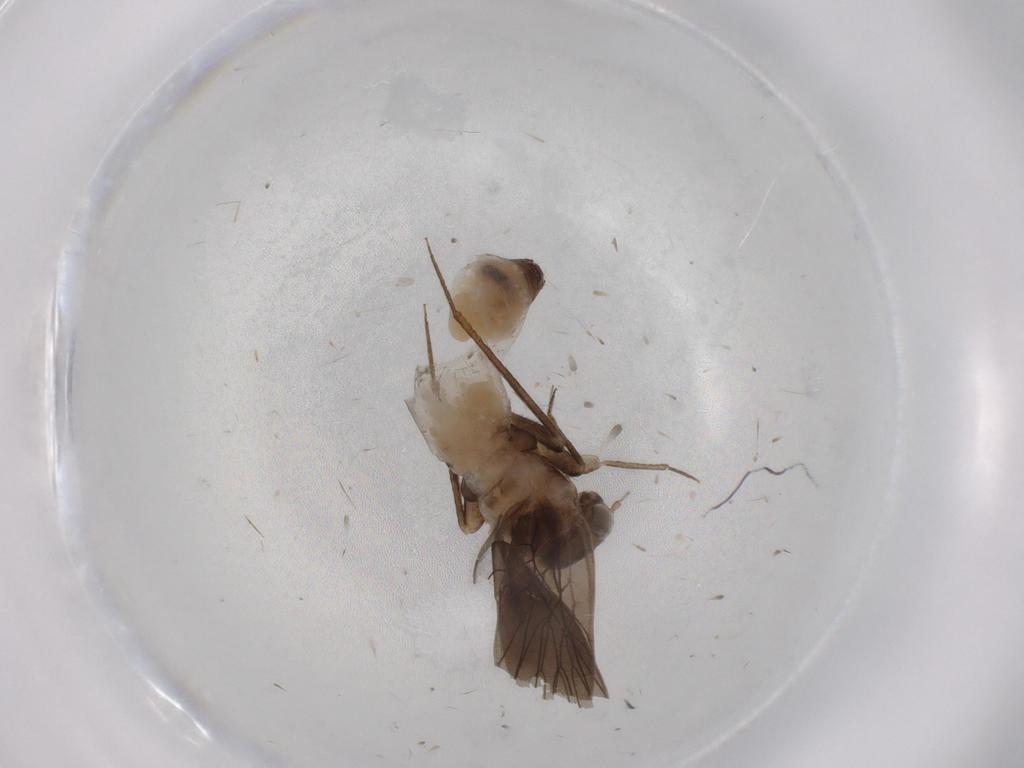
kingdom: Animalia
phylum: Arthropoda
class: Insecta
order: Psocodea
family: Lepidopsocidae
